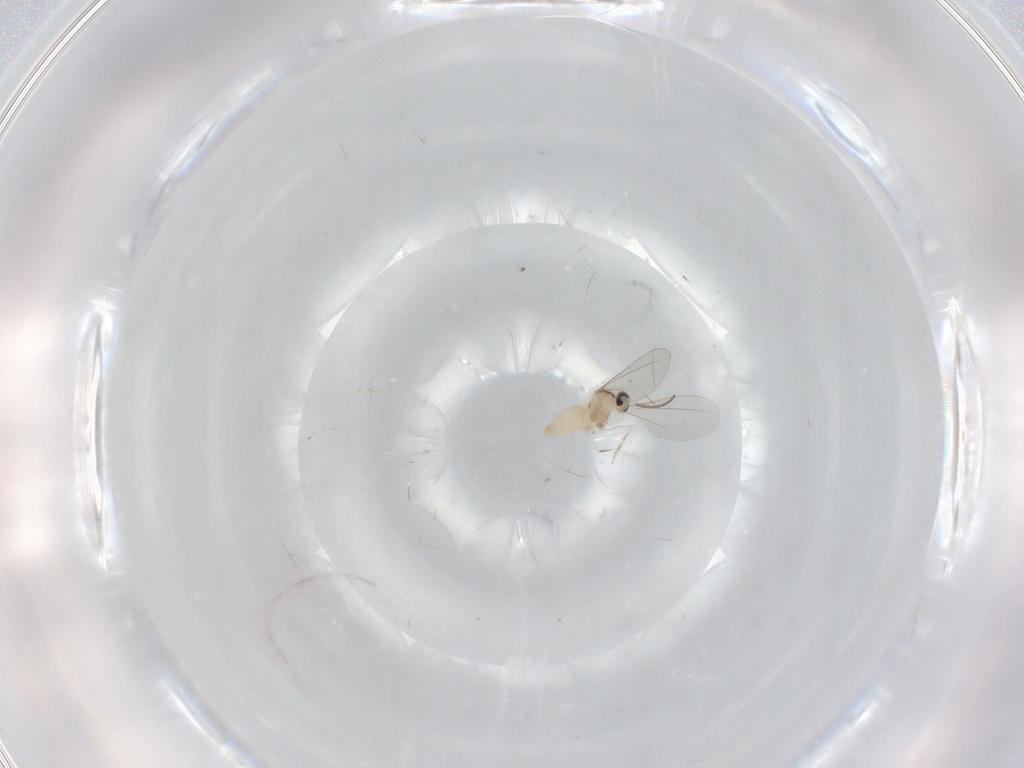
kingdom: Animalia
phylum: Arthropoda
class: Insecta
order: Diptera
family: Cecidomyiidae
